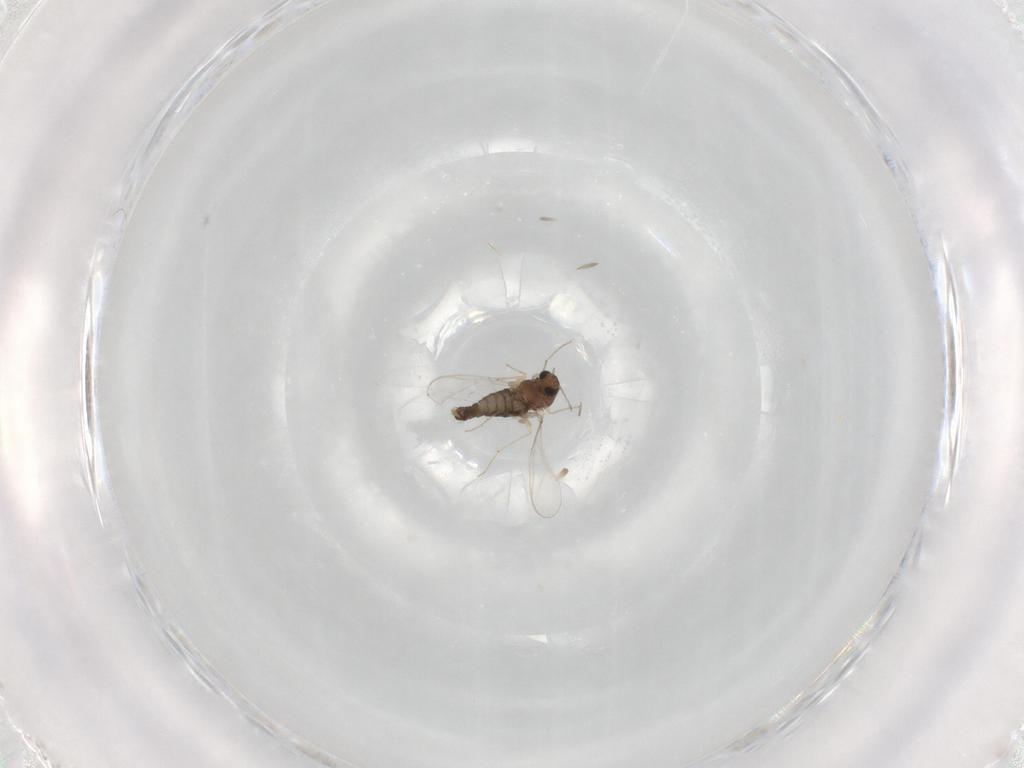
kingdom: Animalia
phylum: Arthropoda
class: Insecta
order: Diptera
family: Chironomidae
